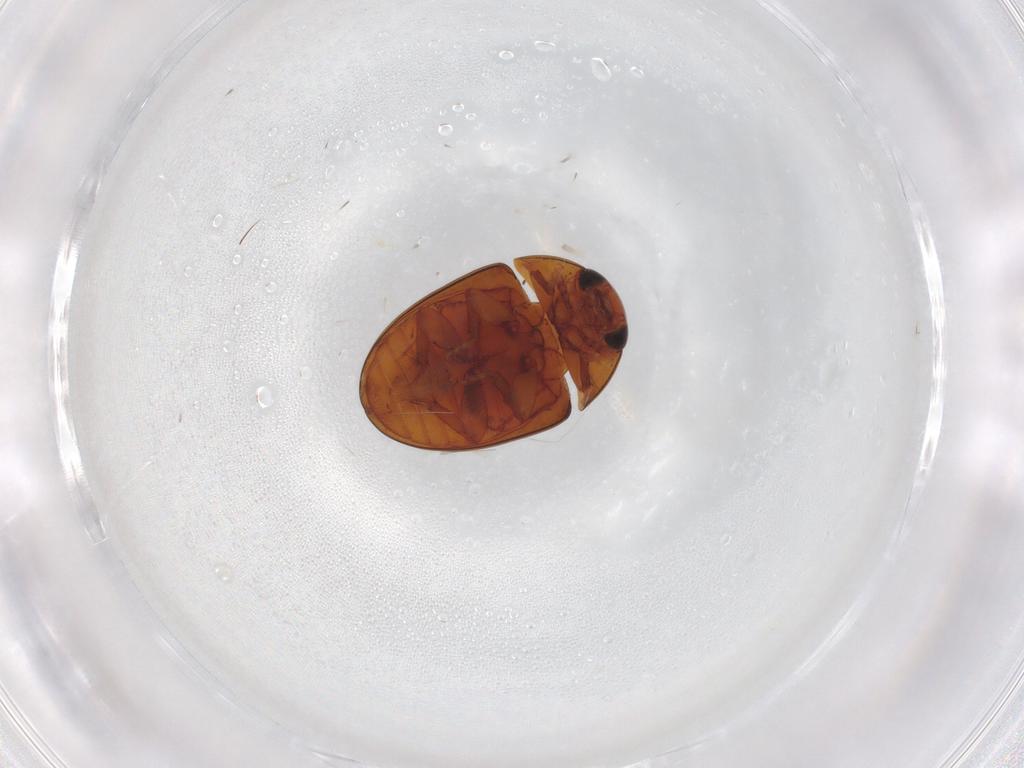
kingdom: Animalia
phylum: Arthropoda
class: Insecta
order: Coleoptera
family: Phalacridae
